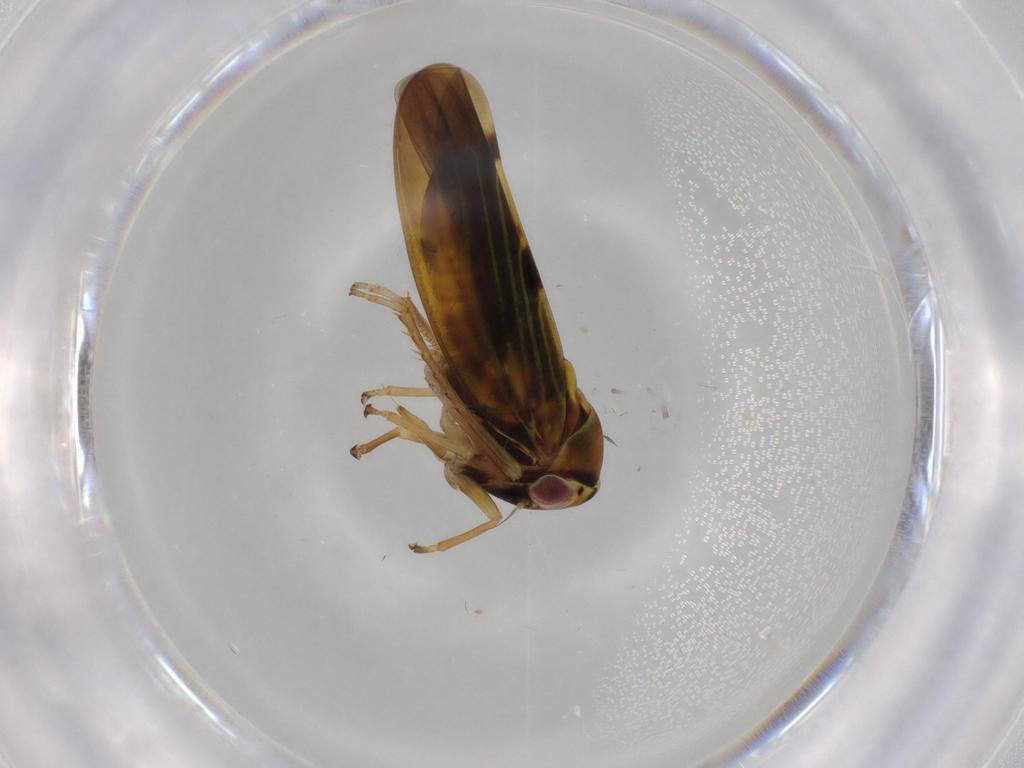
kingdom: Animalia
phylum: Arthropoda
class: Insecta
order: Hemiptera
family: Cicadellidae
